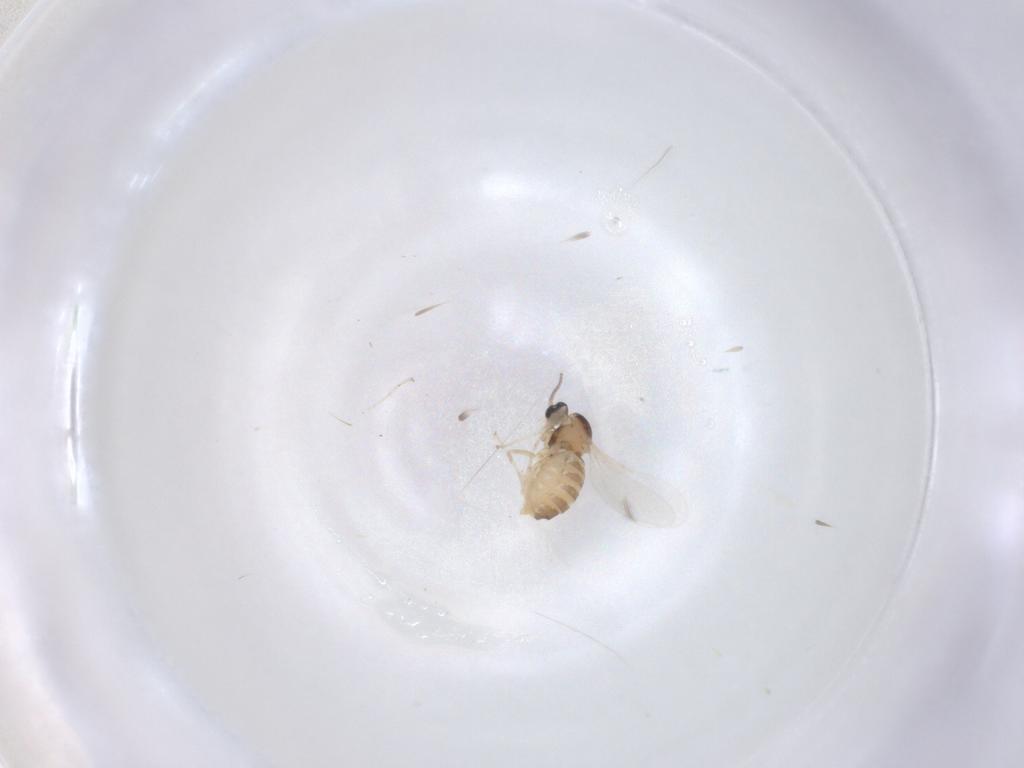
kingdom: Animalia
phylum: Arthropoda
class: Insecta
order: Diptera
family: Cecidomyiidae
